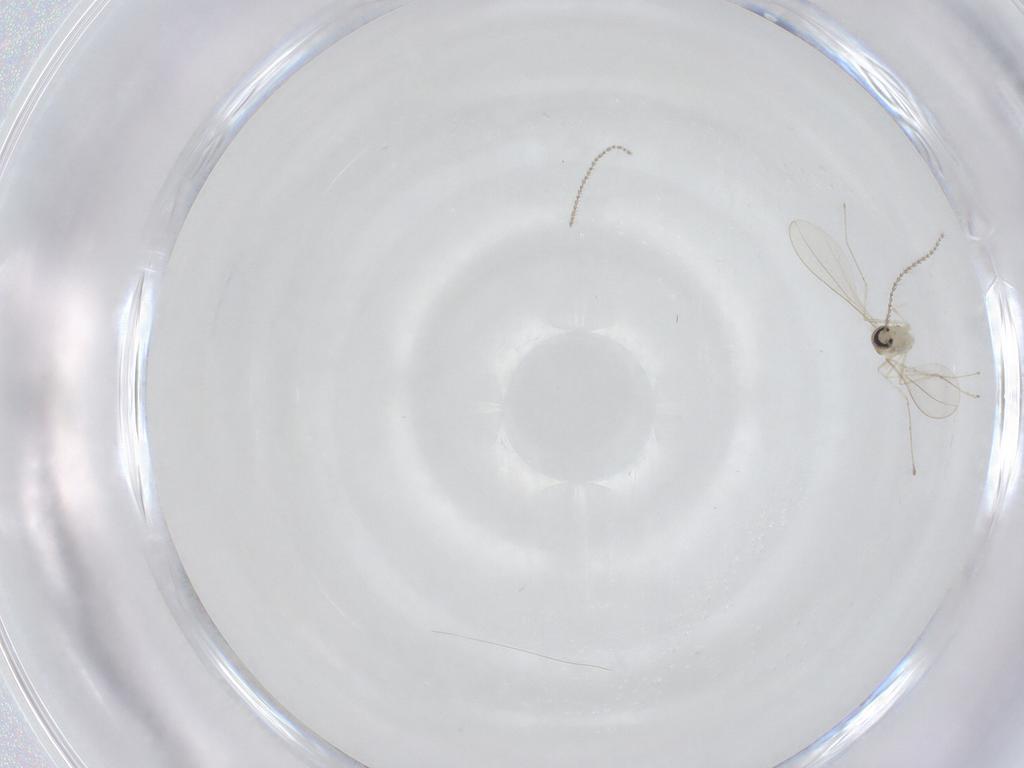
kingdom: Animalia
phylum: Arthropoda
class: Insecta
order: Diptera
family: Cecidomyiidae
